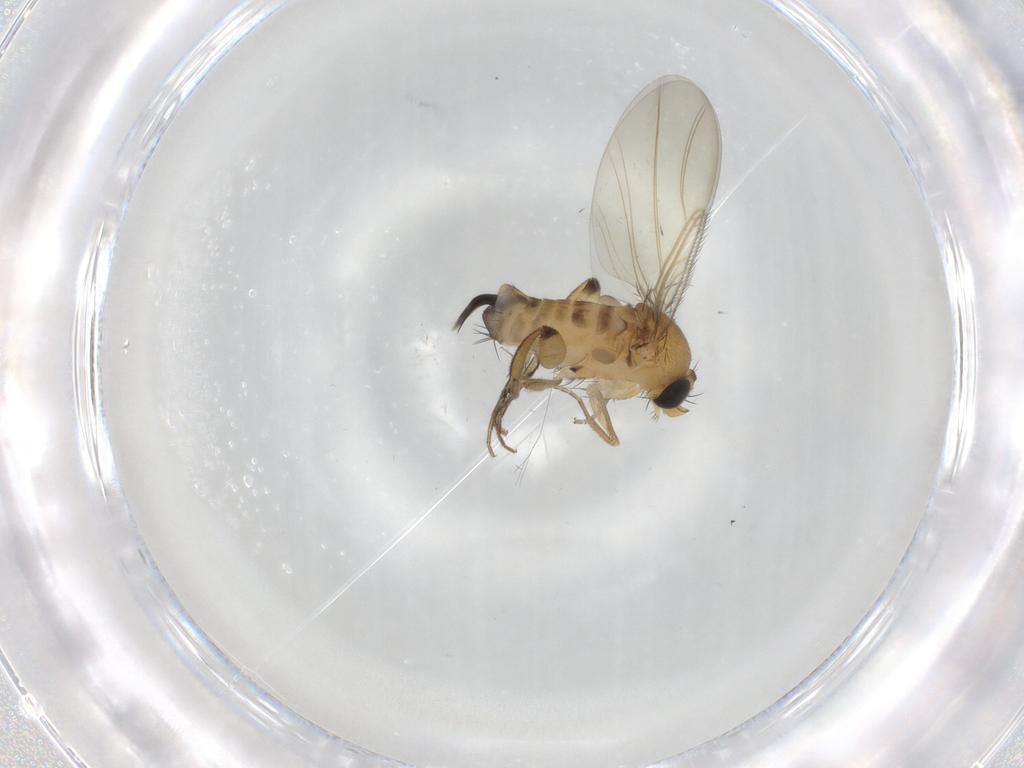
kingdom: Animalia
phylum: Arthropoda
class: Insecta
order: Diptera
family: Phoridae
